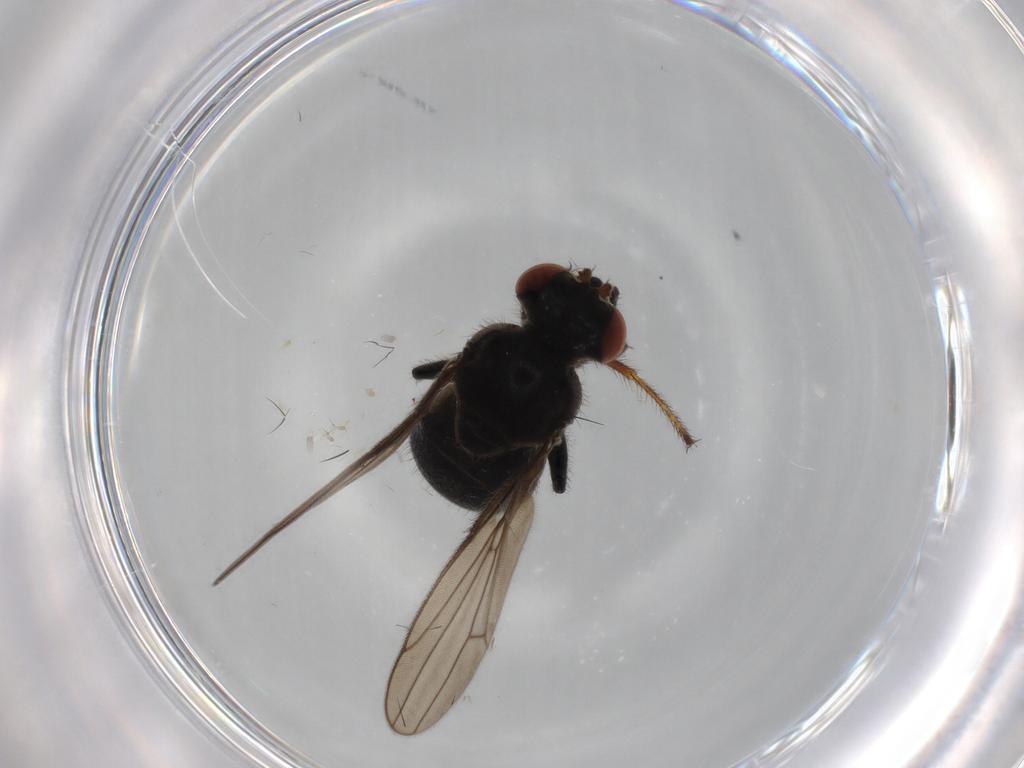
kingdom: Animalia
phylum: Arthropoda
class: Insecta
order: Diptera
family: Ephydridae
